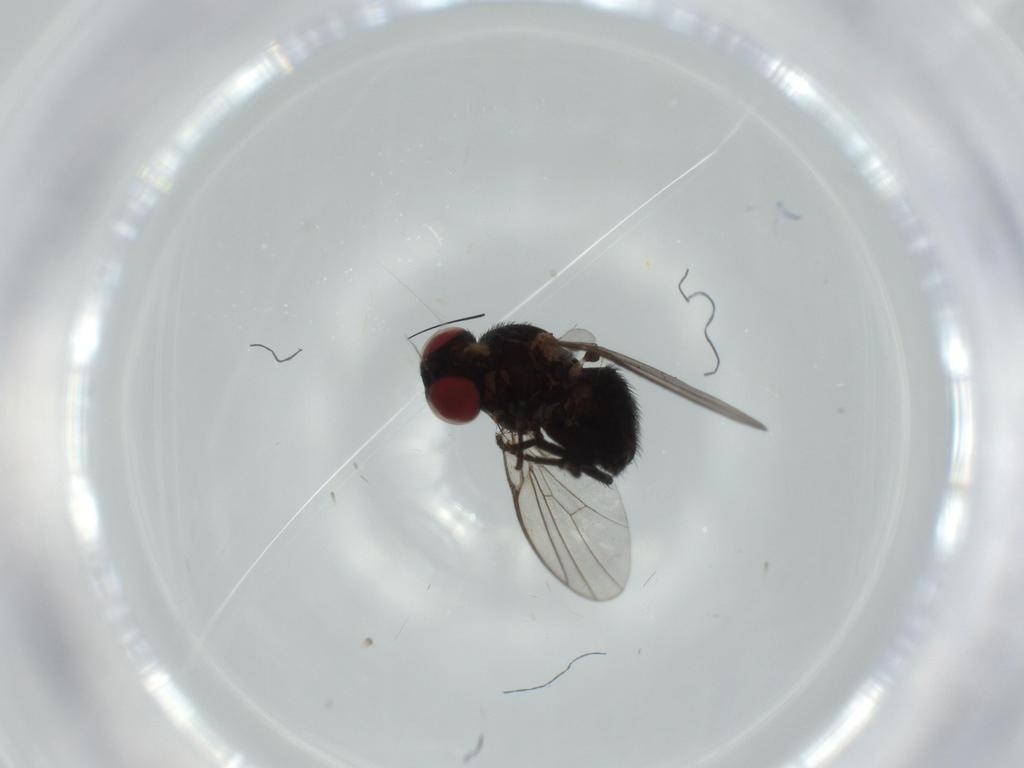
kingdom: Animalia
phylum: Arthropoda
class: Insecta
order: Diptera
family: Agromyzidae
